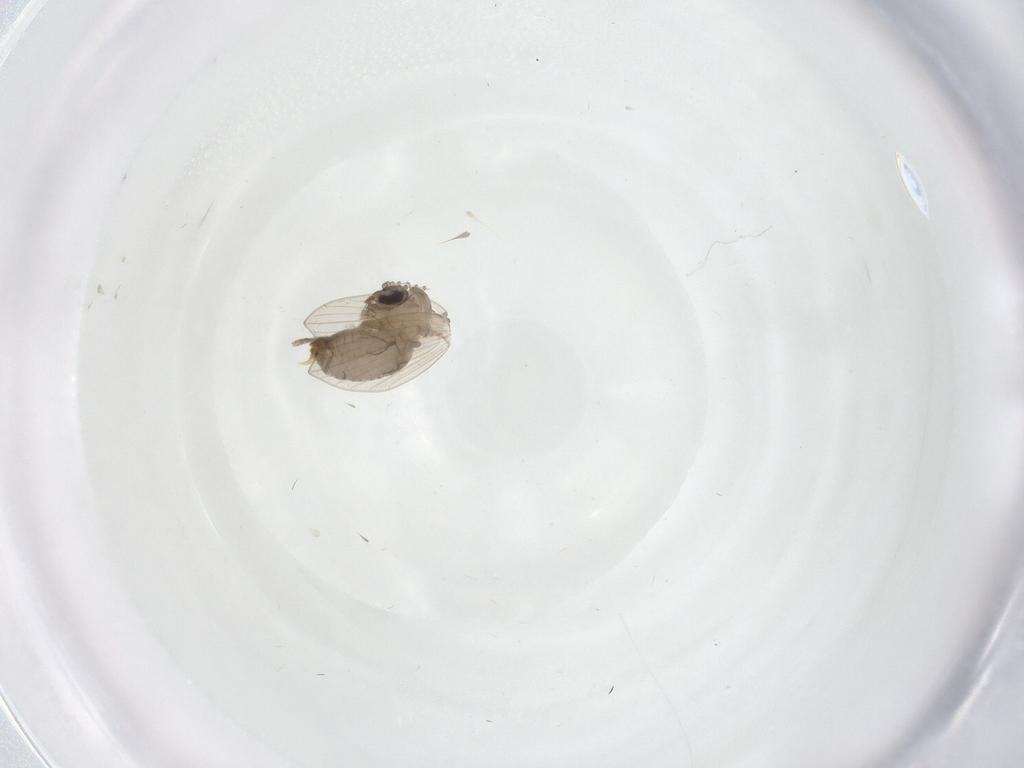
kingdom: Animalia
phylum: Arthropoda
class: Insecta
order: Diptera
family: Psychodidae
